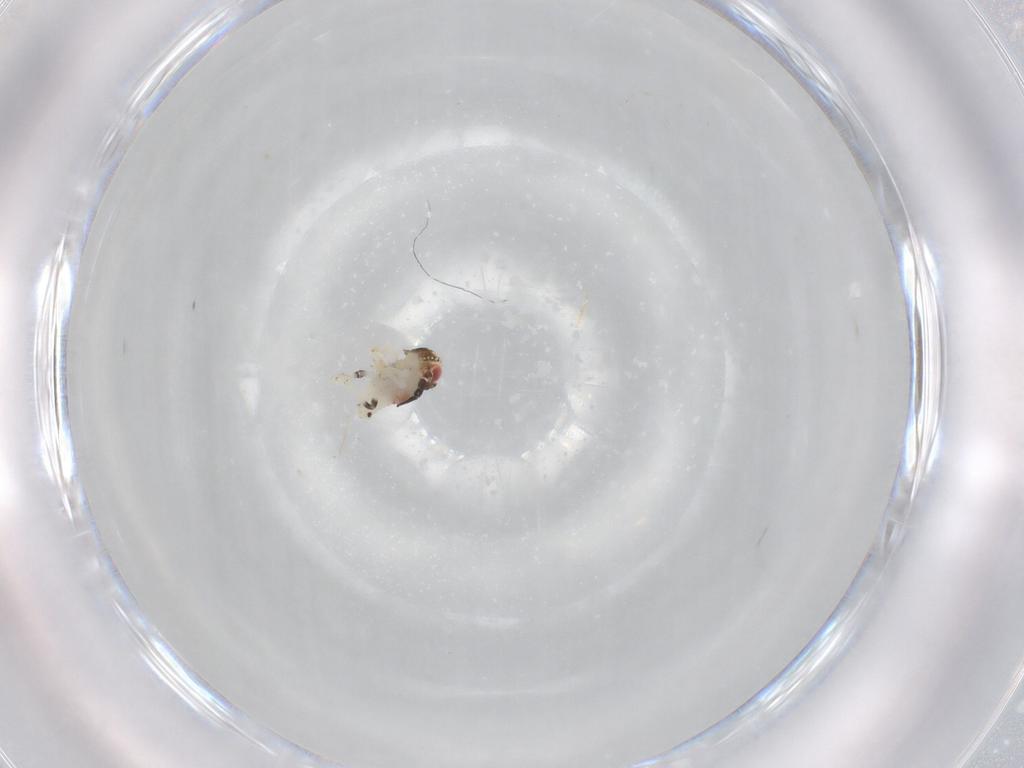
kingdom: Animalia
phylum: Arthropoda
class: Insecta
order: Hemiptera
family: Nogodinidae
